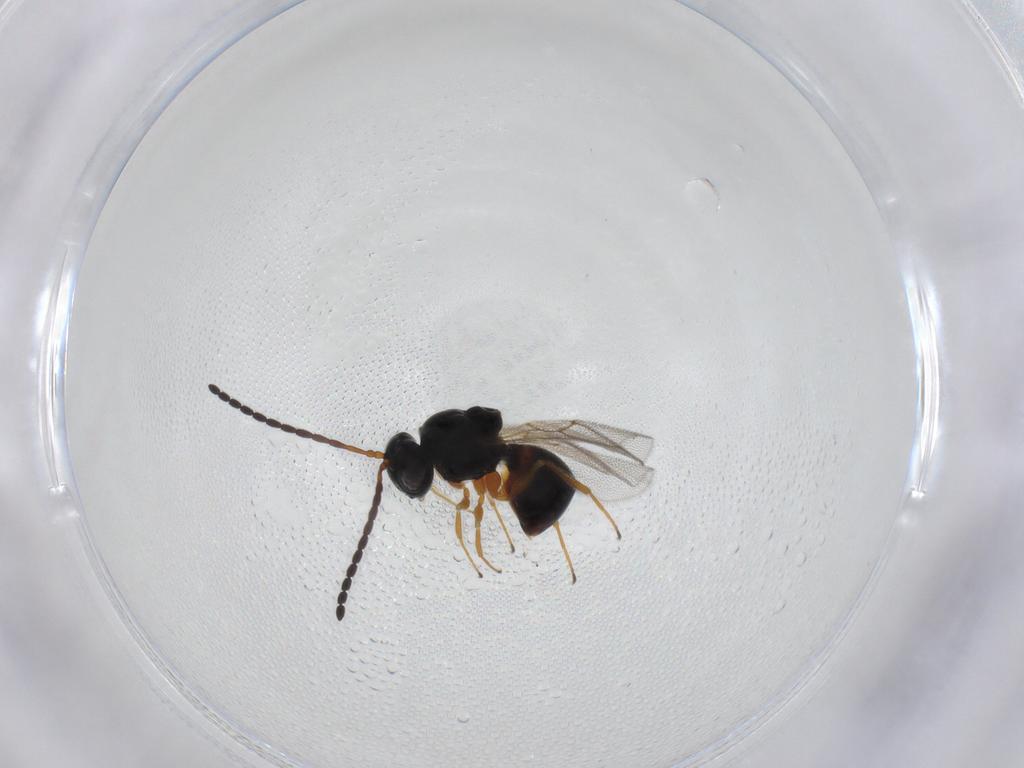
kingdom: Animalia
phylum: Arthropoda
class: Insecta
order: Hymenoptera
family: Figitidae
